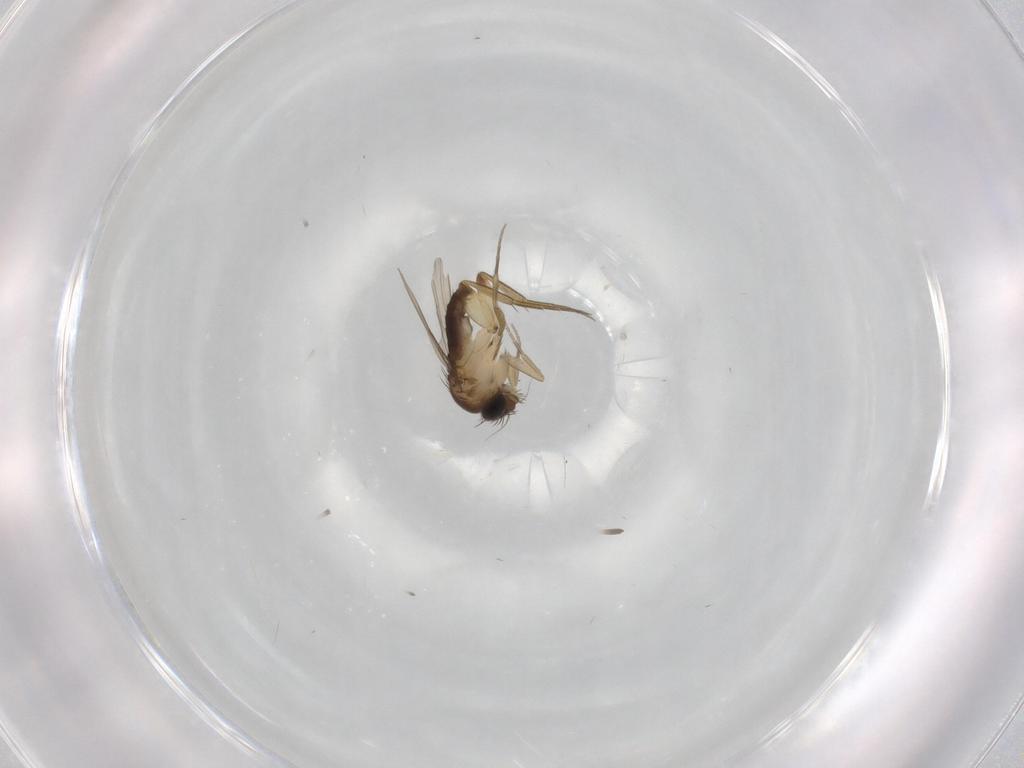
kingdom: Animalia
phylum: Arthropoda
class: Insecta
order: Diptera
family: Phoridae
